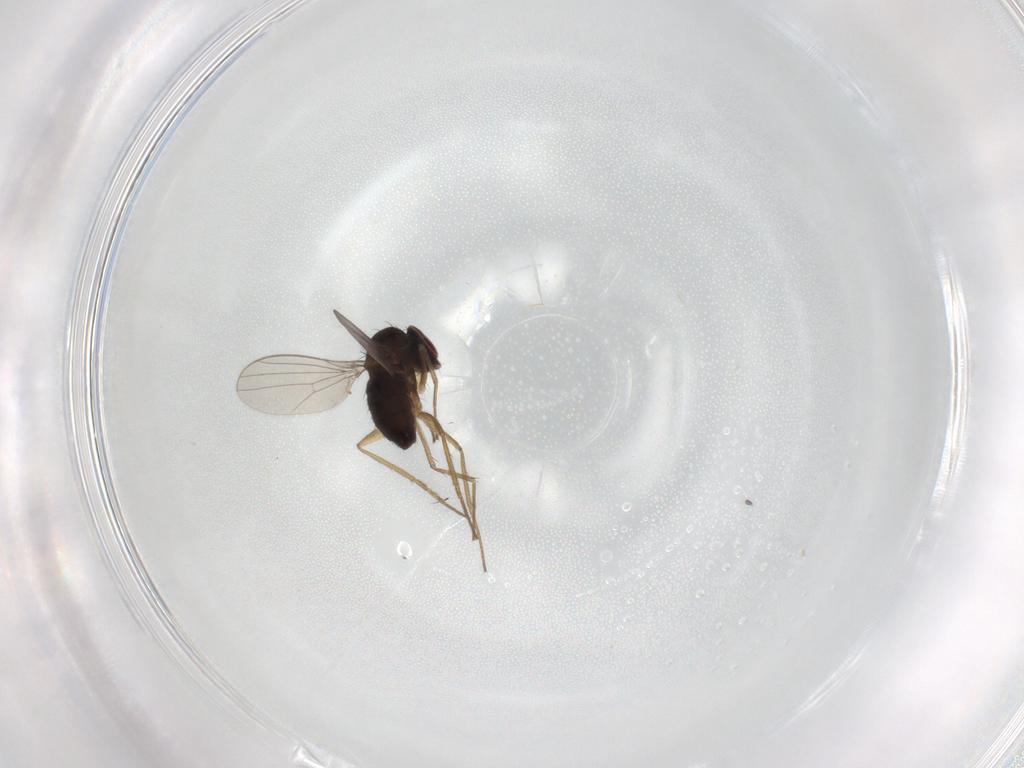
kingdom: Animalia
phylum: Arthropoda
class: Insecta
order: Diptera
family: Dolichopodidae
